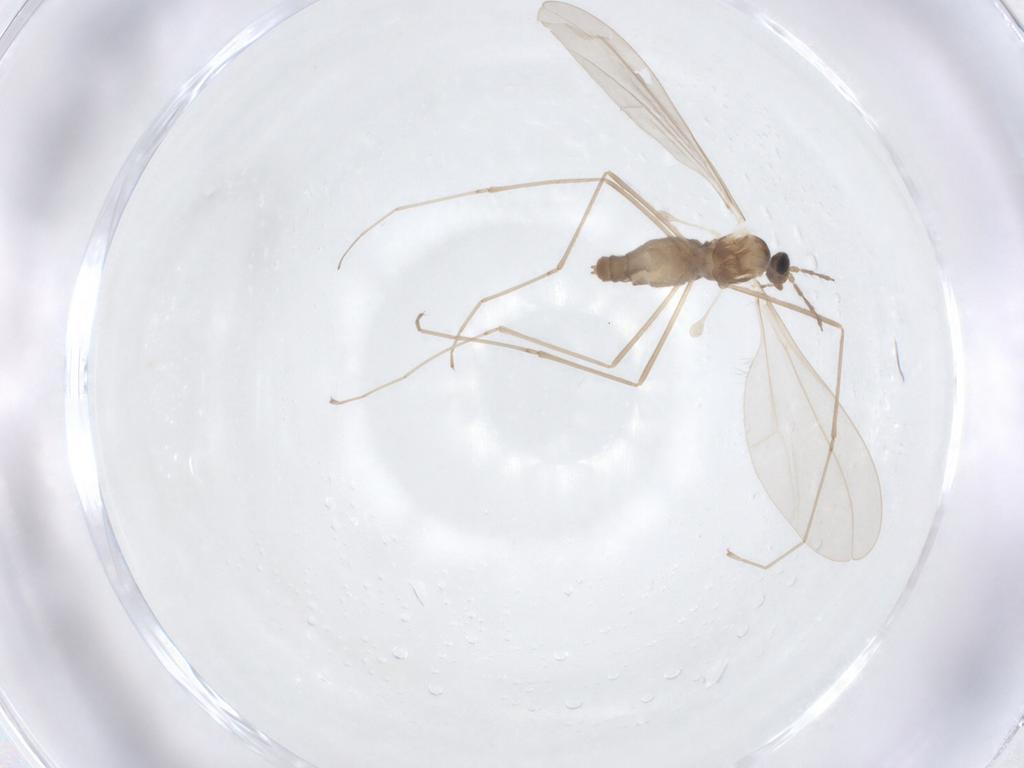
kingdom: Animalia
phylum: Arthropoda
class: Insecta
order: Diptera
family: Cecidomyiidae
